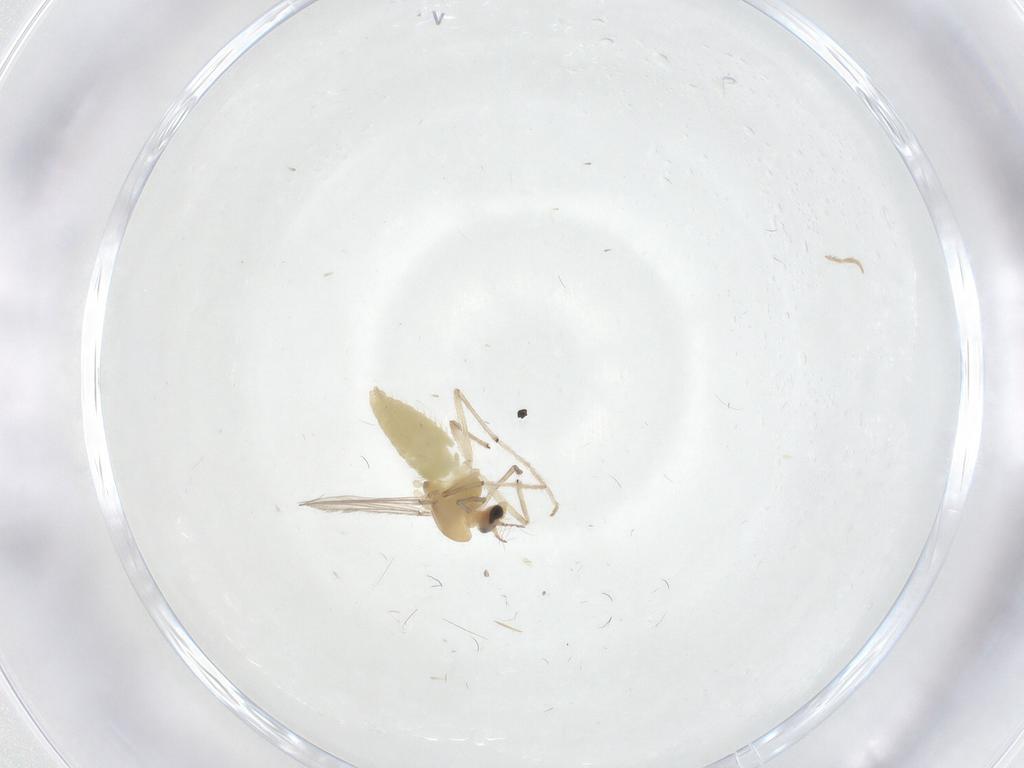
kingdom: Animalia
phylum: Arthropoda
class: Insecta
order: Diptera
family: Chironomidae
